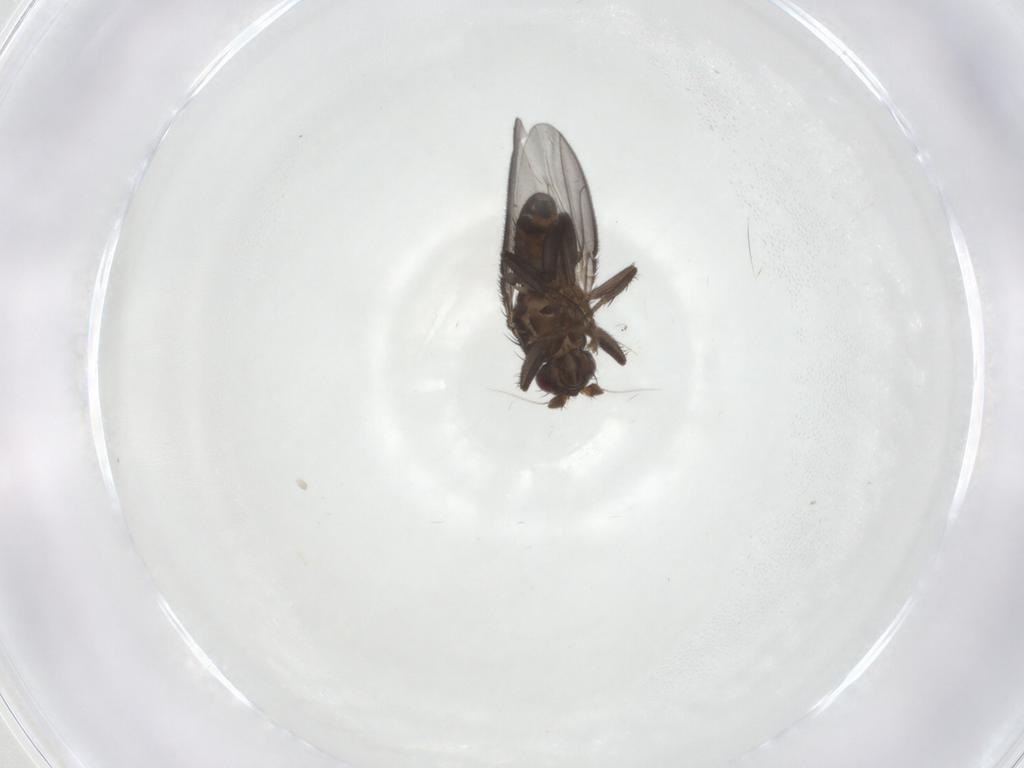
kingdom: Animalia
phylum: Arthropoda
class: Insecta
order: Diptera
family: Sphaeroceridae
